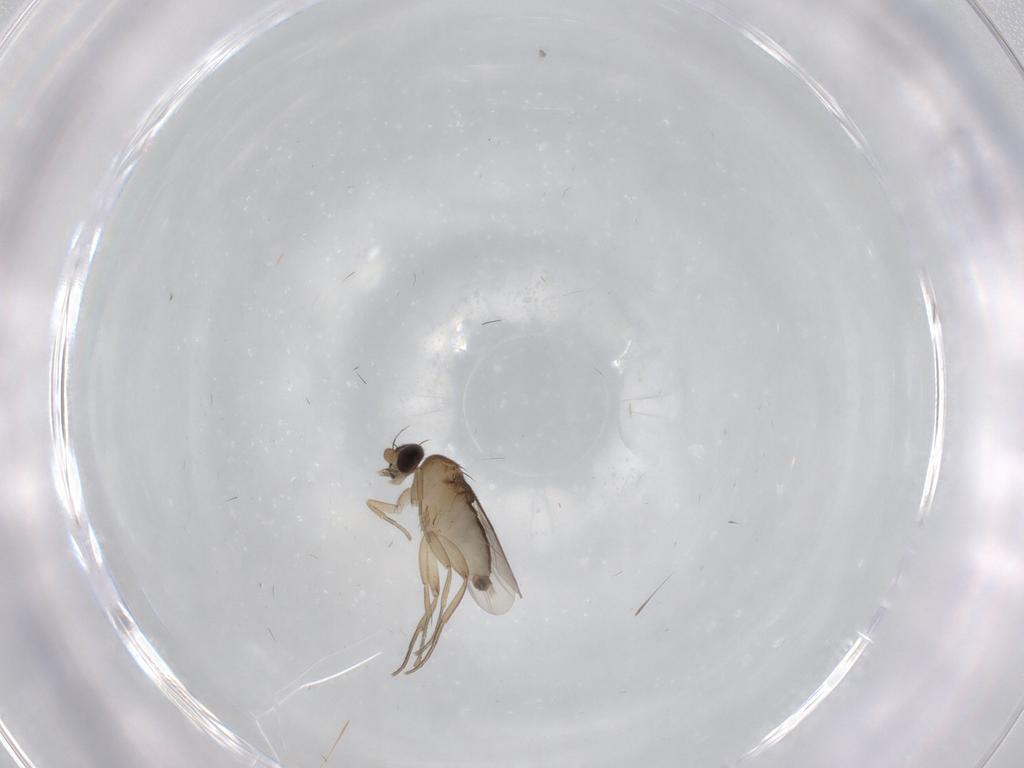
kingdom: Animalia
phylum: Arthropoda
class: Insecta
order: Diptera
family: Phoridae
